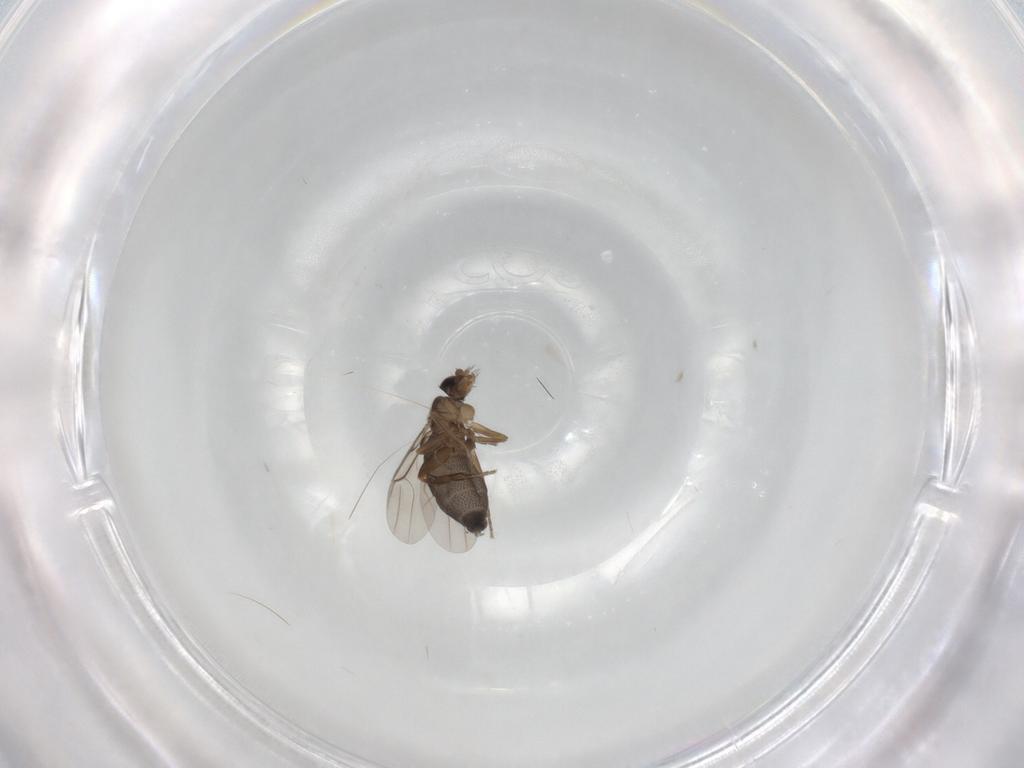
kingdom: Animalia
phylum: Arthropoda
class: Insecta
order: Diptera
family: Phoridae
